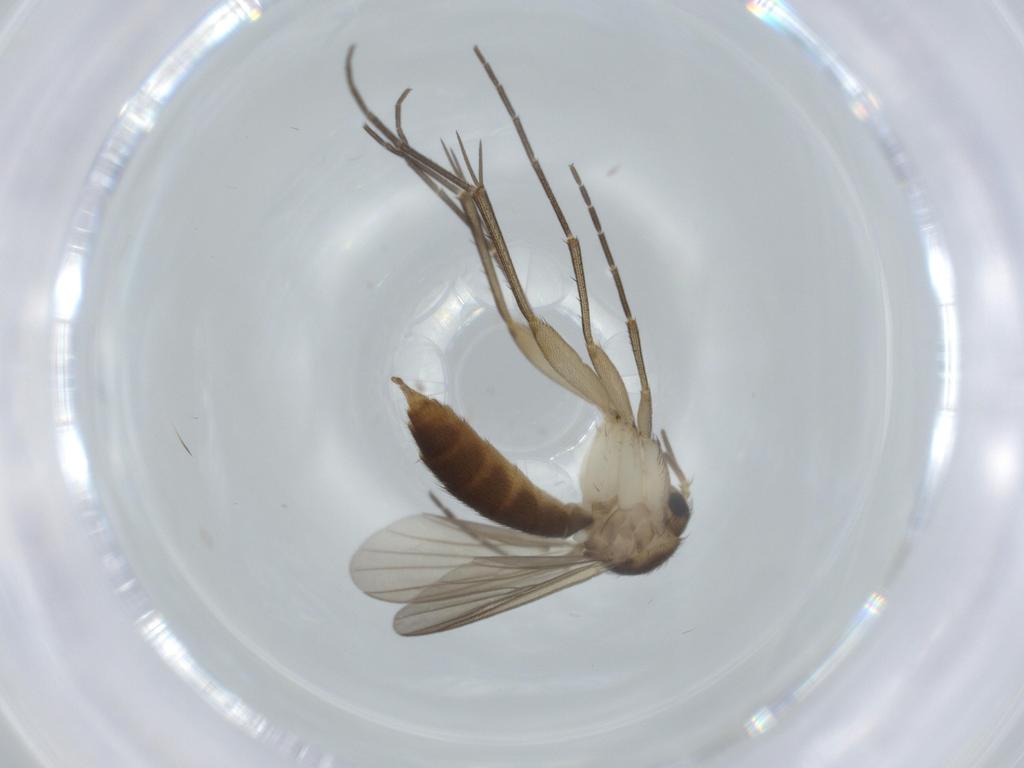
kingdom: Animalia
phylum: Arthropoda
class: Insecta
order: Diptera
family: Mycetophilidae
